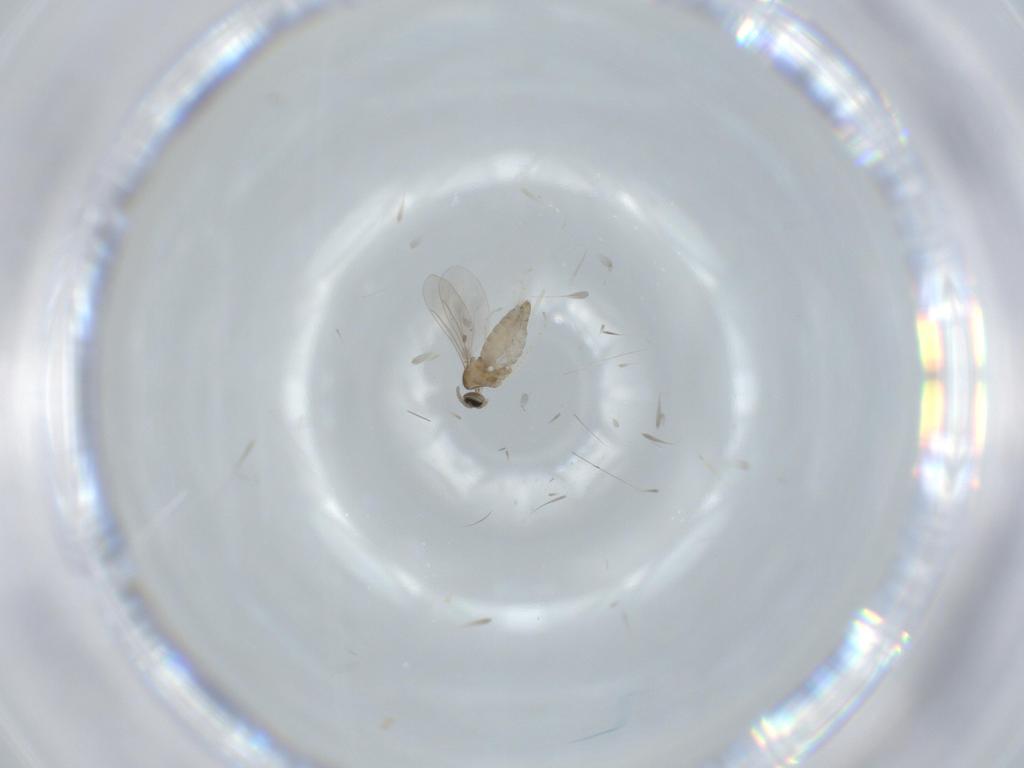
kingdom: Animalia
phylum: Arthropoda
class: Insecta
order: Diptera
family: Cecidomyiidae
